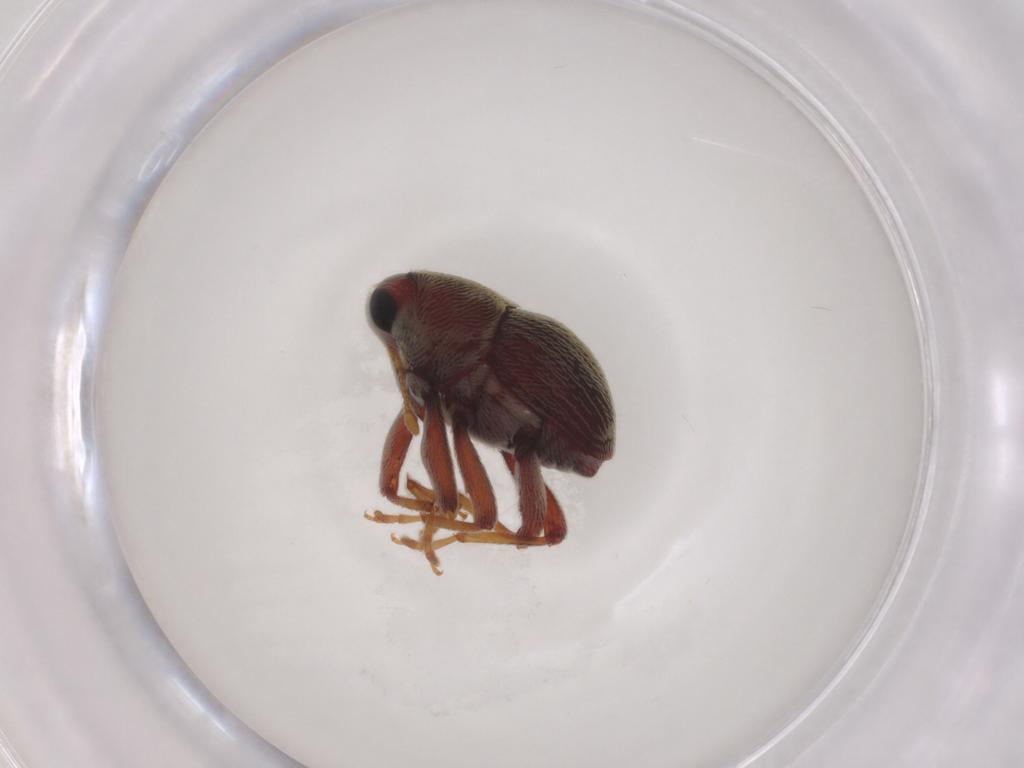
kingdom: Animalia
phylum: Arthropoda
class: Insecta
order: Coleoptera
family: Curculionidae
